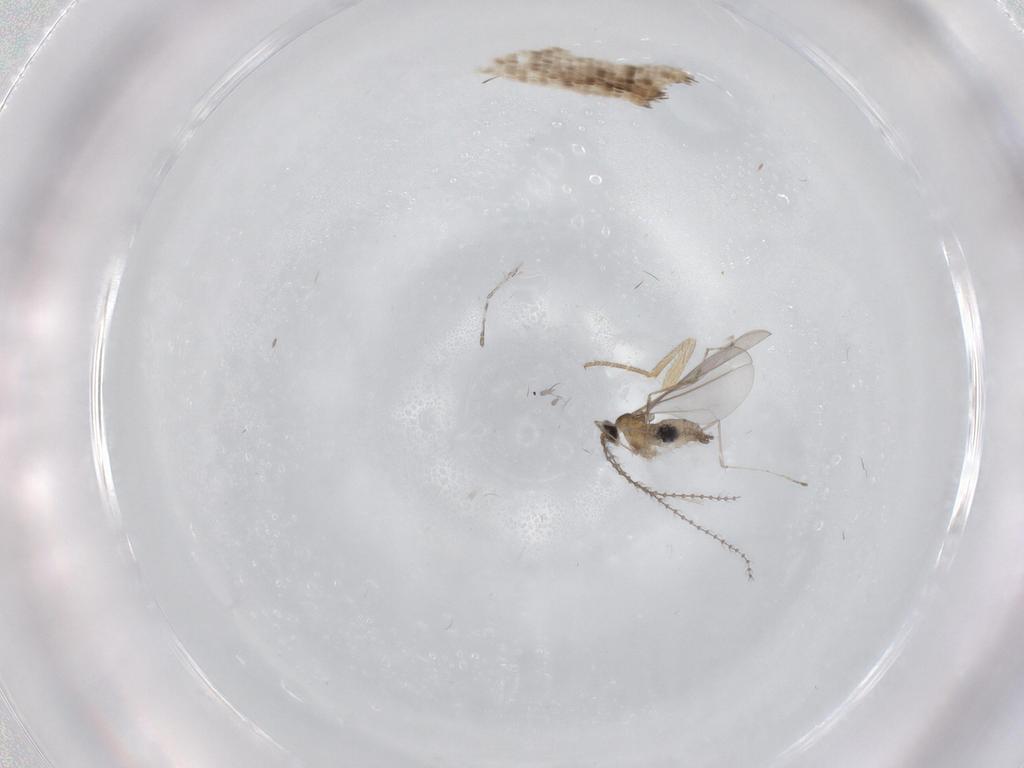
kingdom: Animalia
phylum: Arthropoda
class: Insecta
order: Diptera
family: Cecidomyiidae
